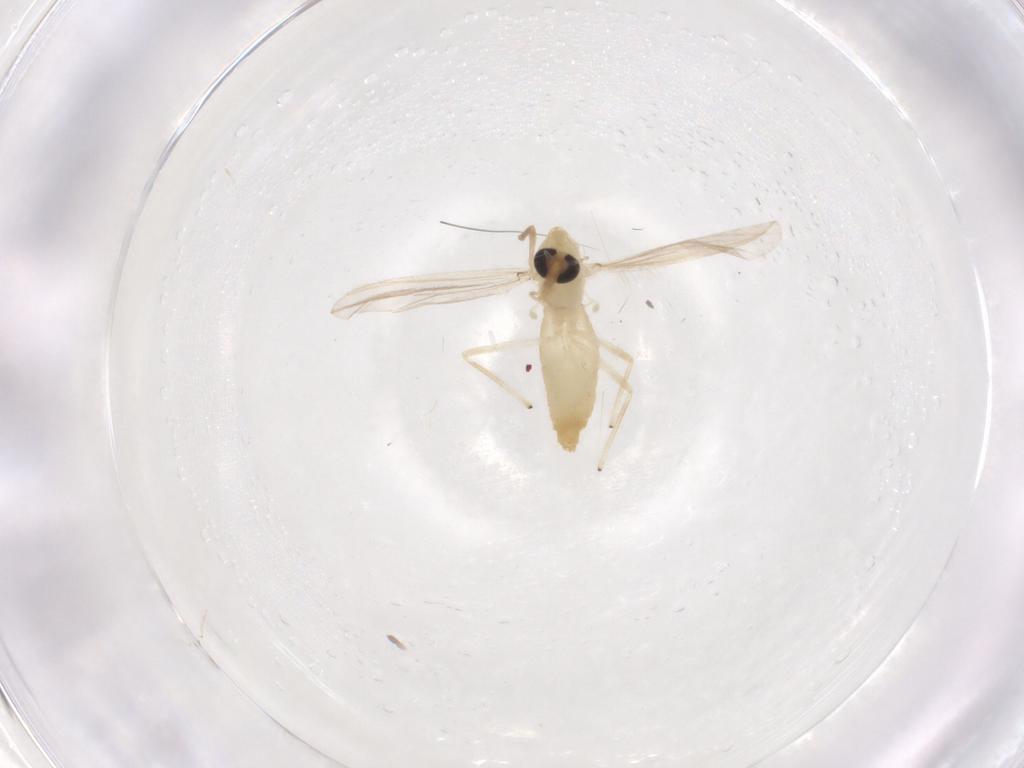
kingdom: Animalia
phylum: Arthropoda
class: Insecta
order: Diptera
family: Chironomidae
